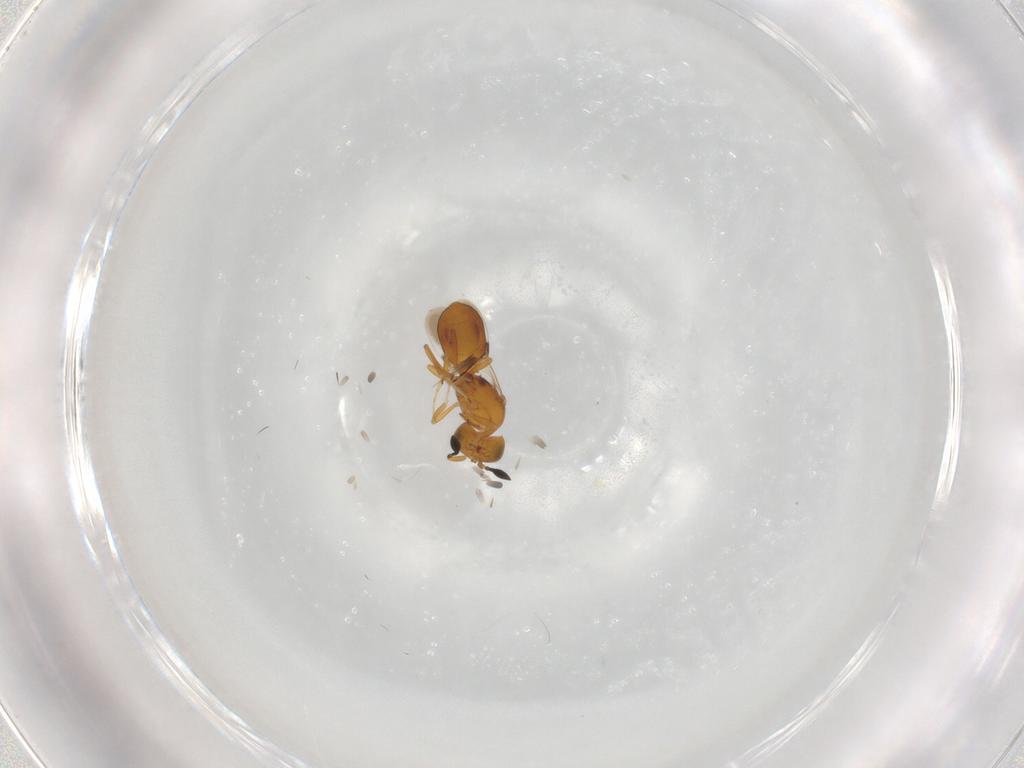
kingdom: Animalia
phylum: Arthropoda
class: Insecta
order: Hymenoptera
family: Scelionidae
